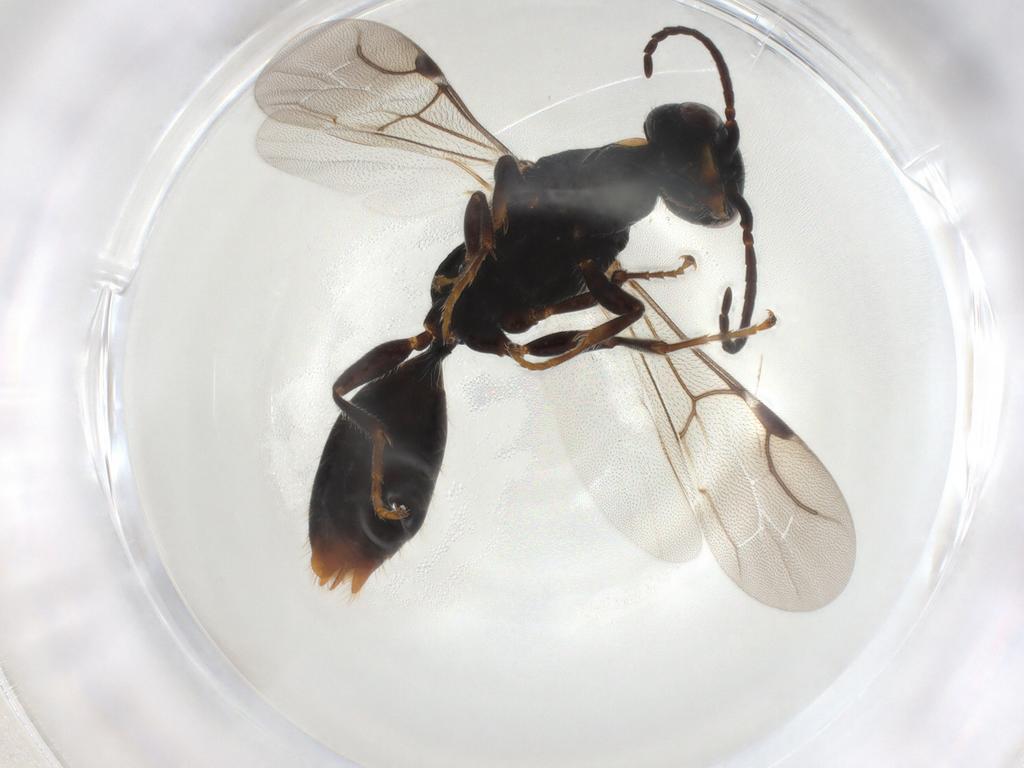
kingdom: Animalia
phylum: Arthropoda
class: Insecta
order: Hymenoptera
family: Bethylidae
